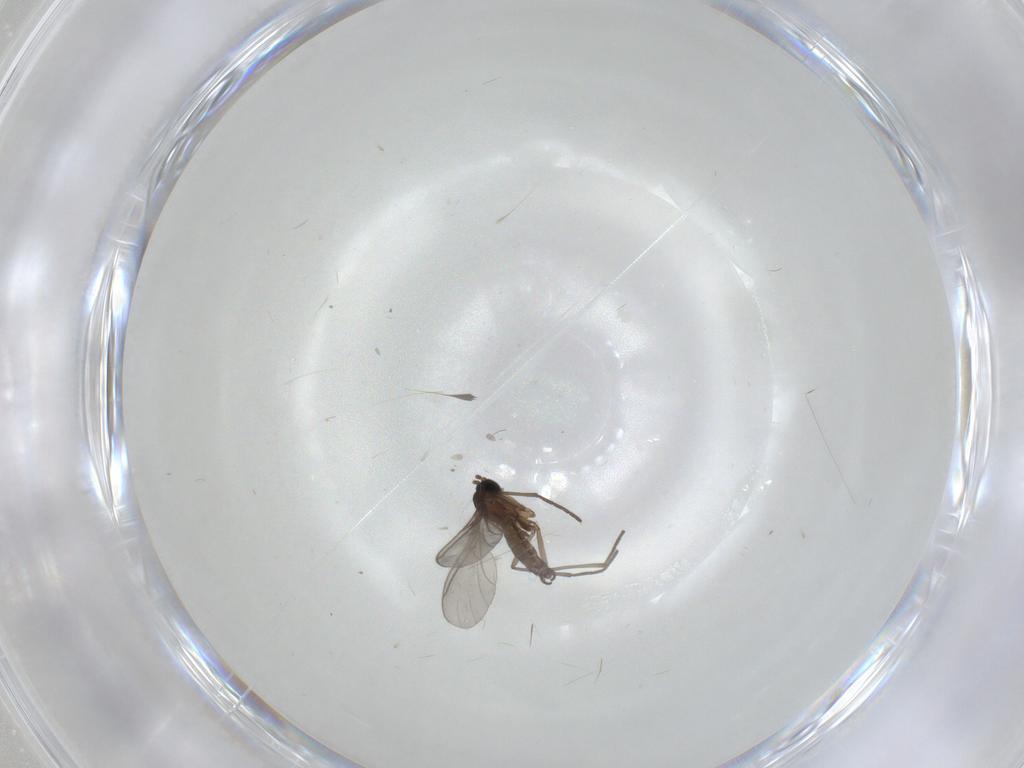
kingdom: Animalia
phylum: Arthropoda
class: Insecta
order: Diptera
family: Sciaridae
